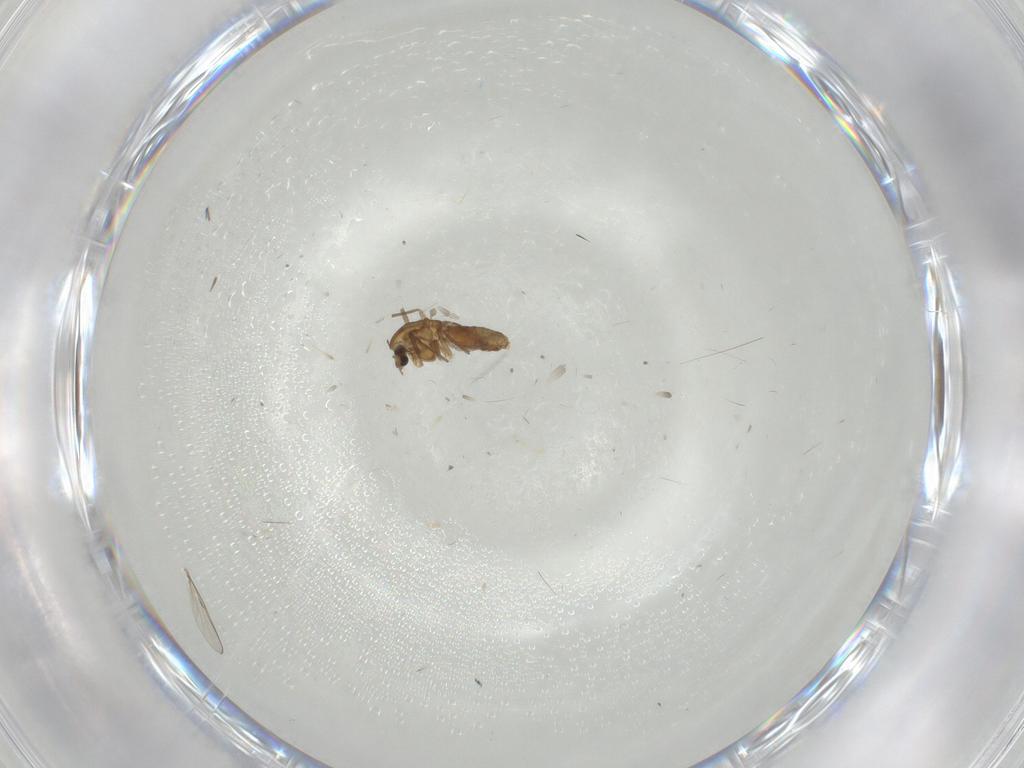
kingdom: Animalia
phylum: Arthropoda
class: Insecta
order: Diptera
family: Chironomidae
